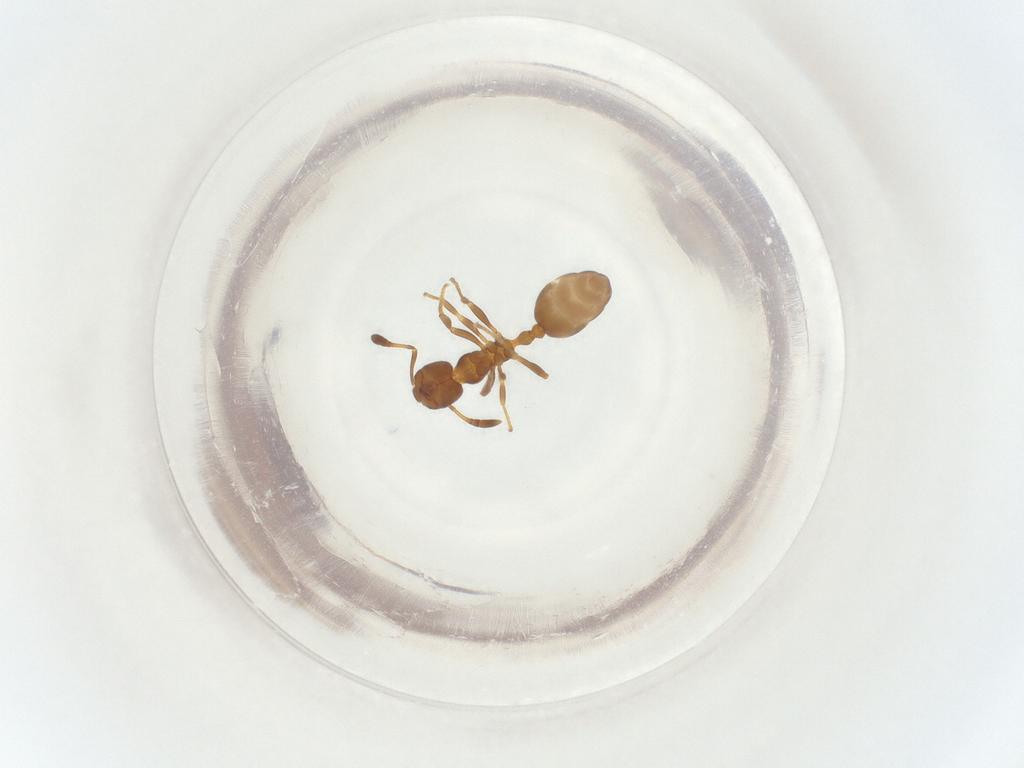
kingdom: Animalia
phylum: Arthropoda
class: Insecta
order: Hymenoptera
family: Formicidae
